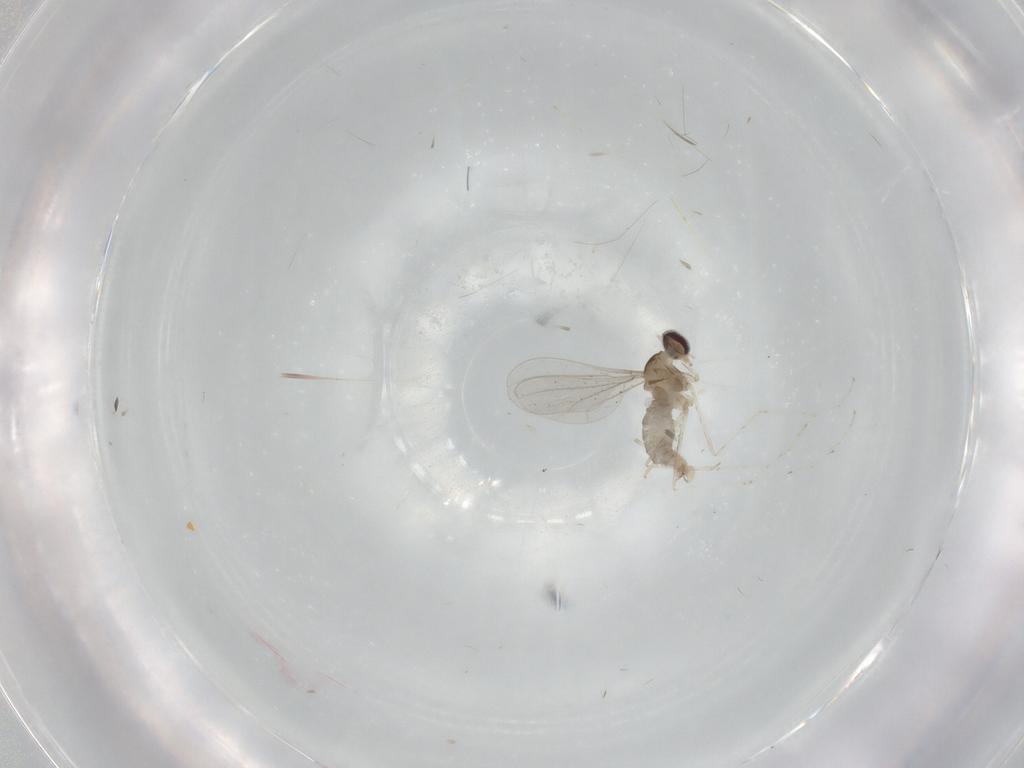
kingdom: Animalia
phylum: Arthropoda
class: Insecta
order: Diptera
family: Cecidomyiidae
